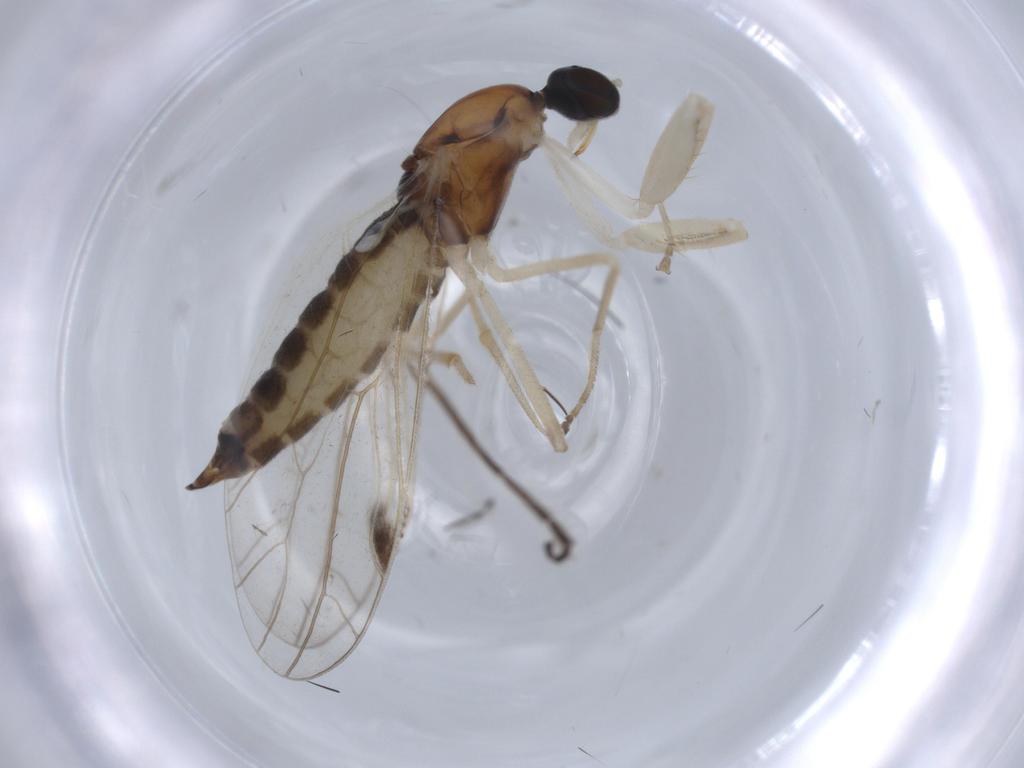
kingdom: Animalia
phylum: Arthropoda
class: Insecta
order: Diptera
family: Empididae
